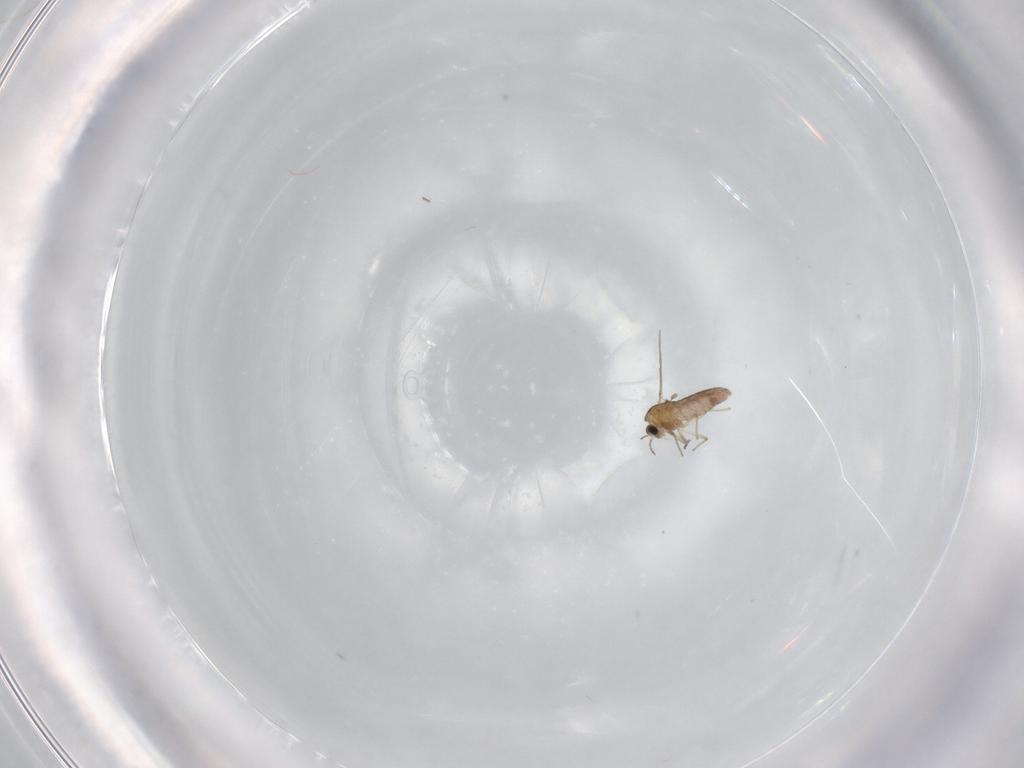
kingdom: Animalia
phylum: Arthropoda
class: Insecta
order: Diptera
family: Chironomidae
